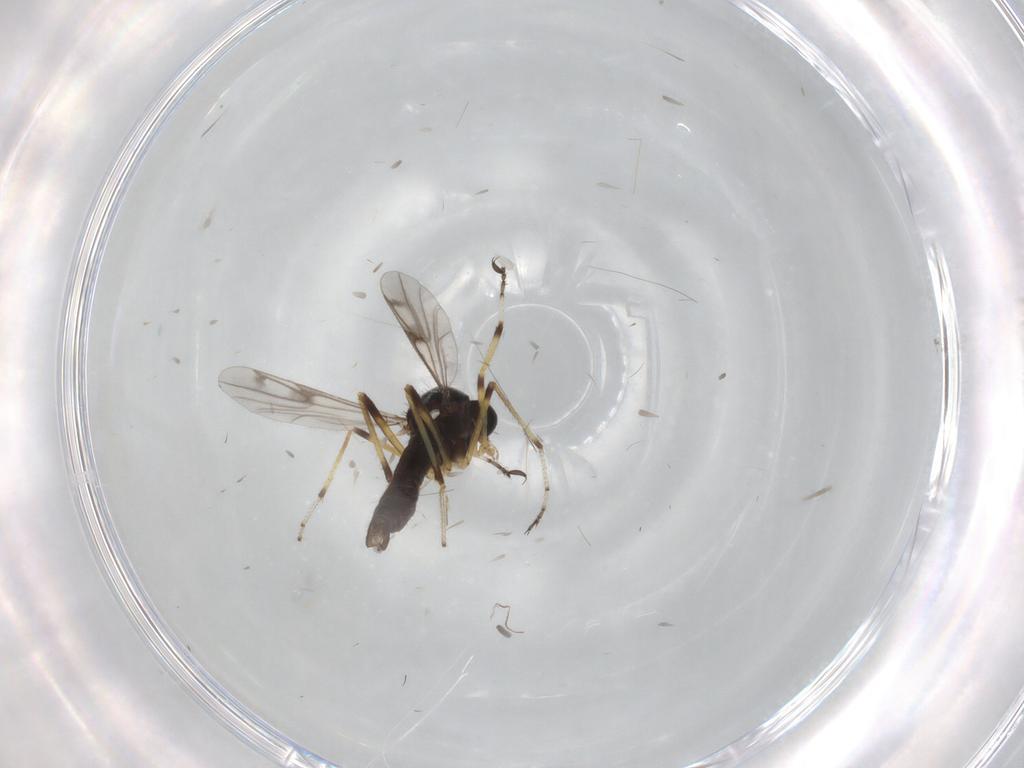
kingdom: Animalia
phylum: Arthropoda
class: Insecta
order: Diptera
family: Ceratopogonidae
